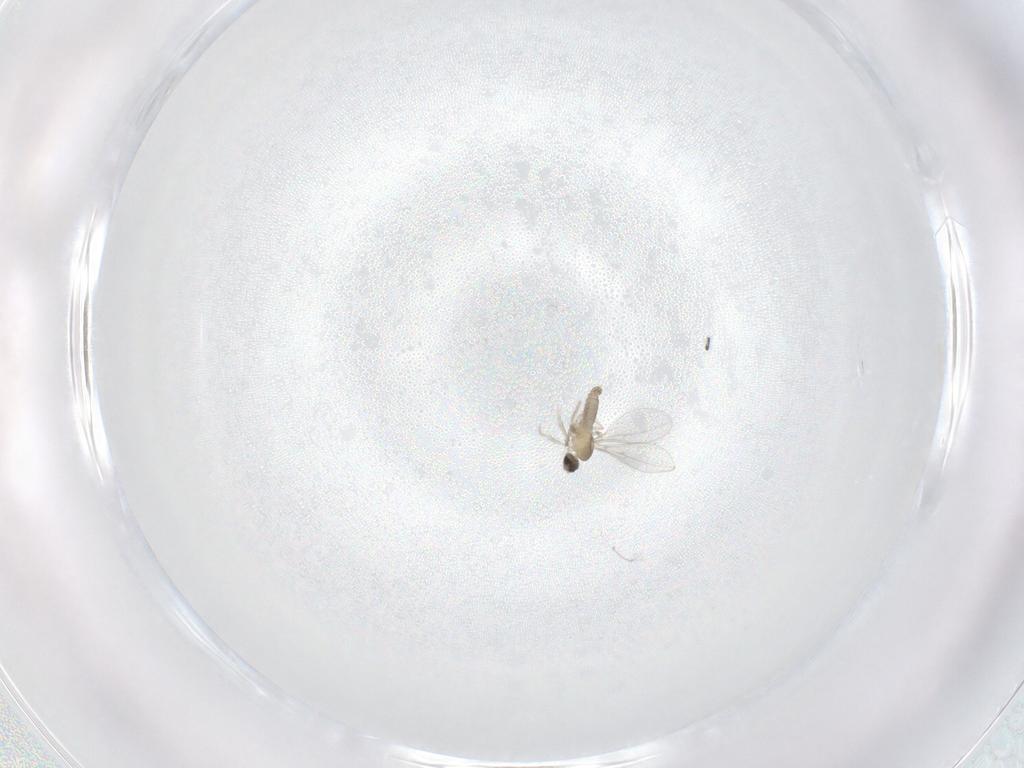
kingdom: Animalia
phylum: Arthropoda
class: Insecta
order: Diptera
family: Cecidomyiidae
